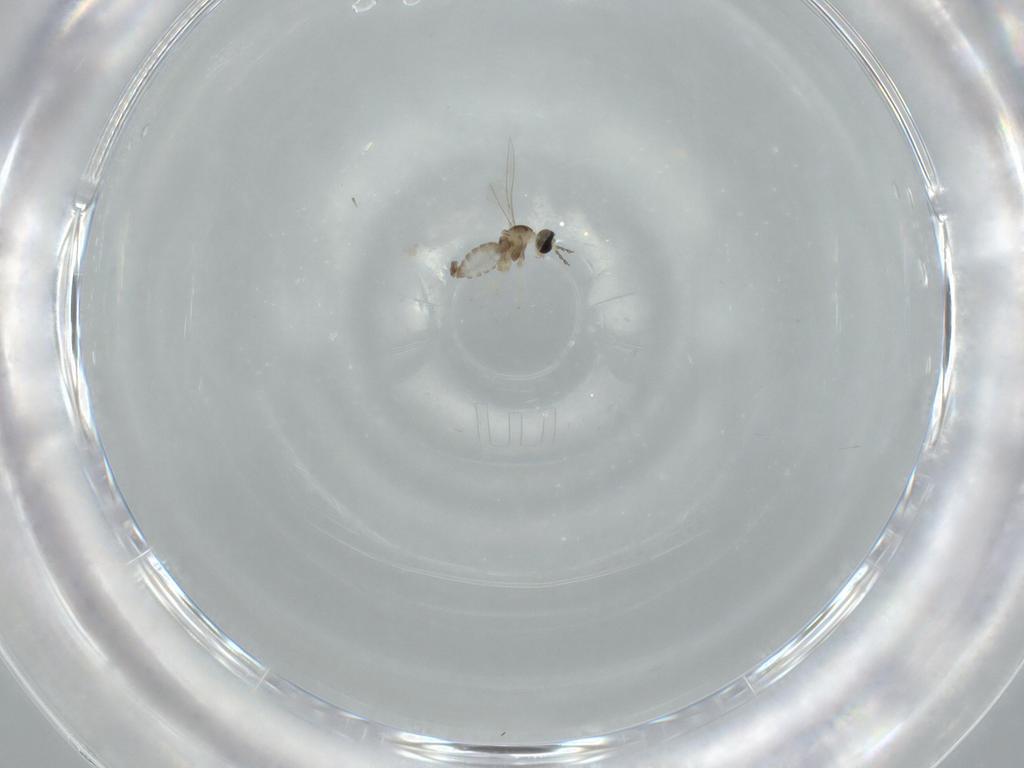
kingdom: Animalia
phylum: Arthropoda
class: Insecta
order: Diptera
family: Cecidomyiidae
